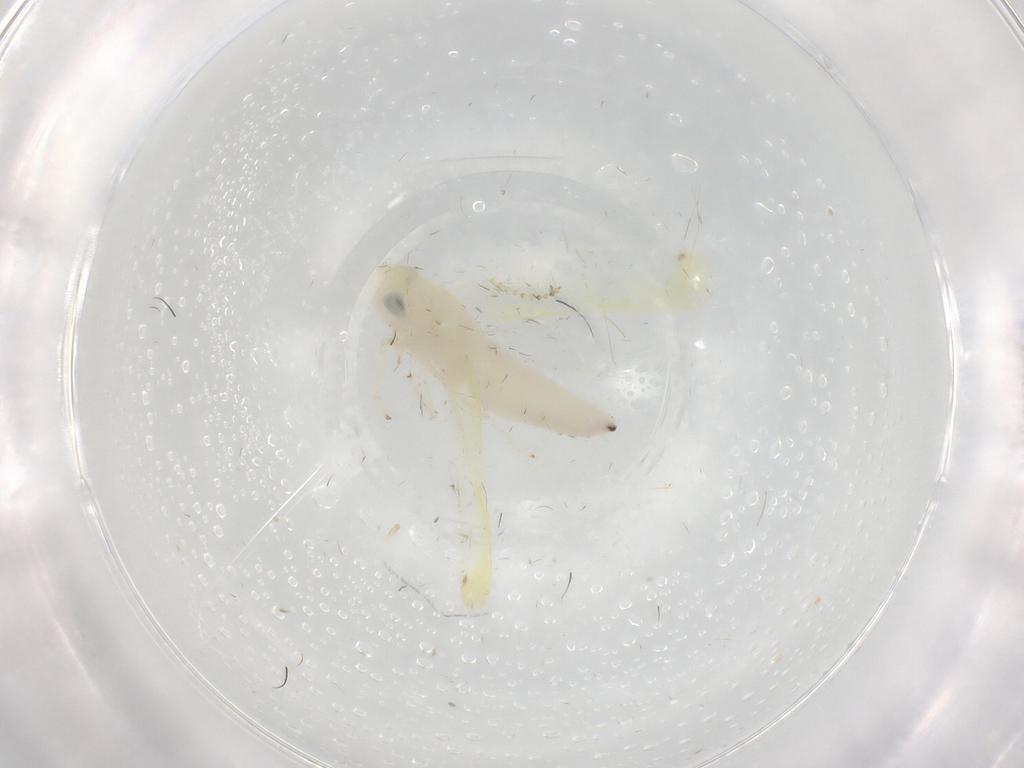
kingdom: Animalia
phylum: Arthropoda
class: Insecta
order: Hemiptera
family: Cicadellidae
